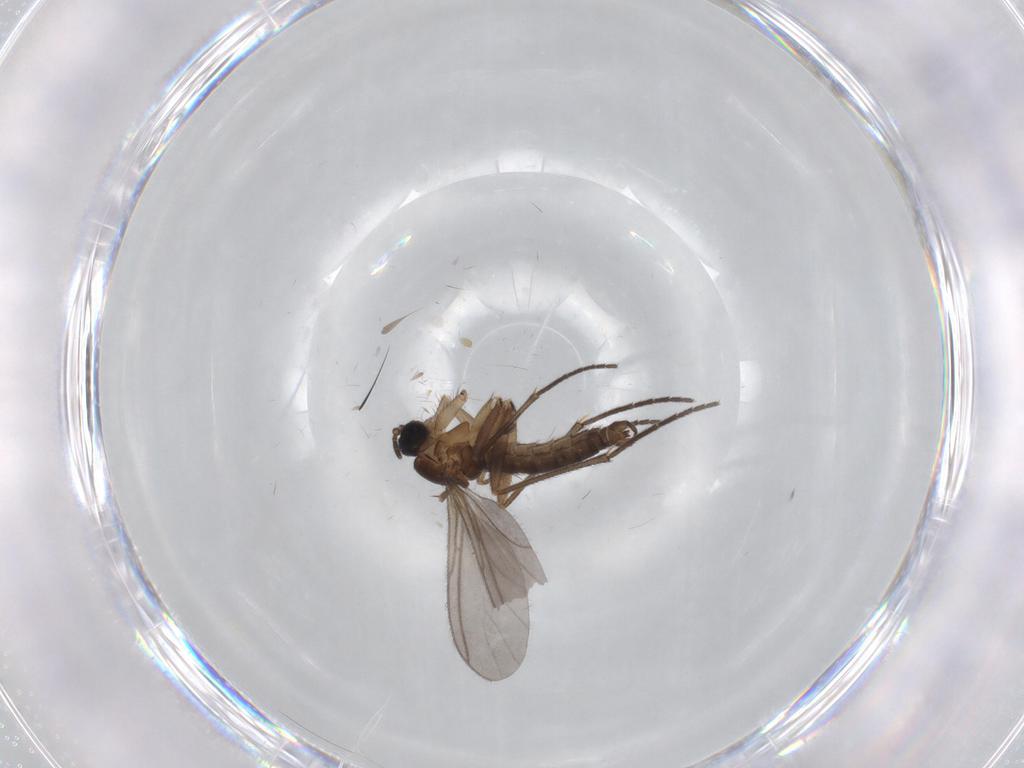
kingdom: Animalia
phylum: Arthropoda
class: Insecta
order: Diptera
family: Cecidomyiidae
